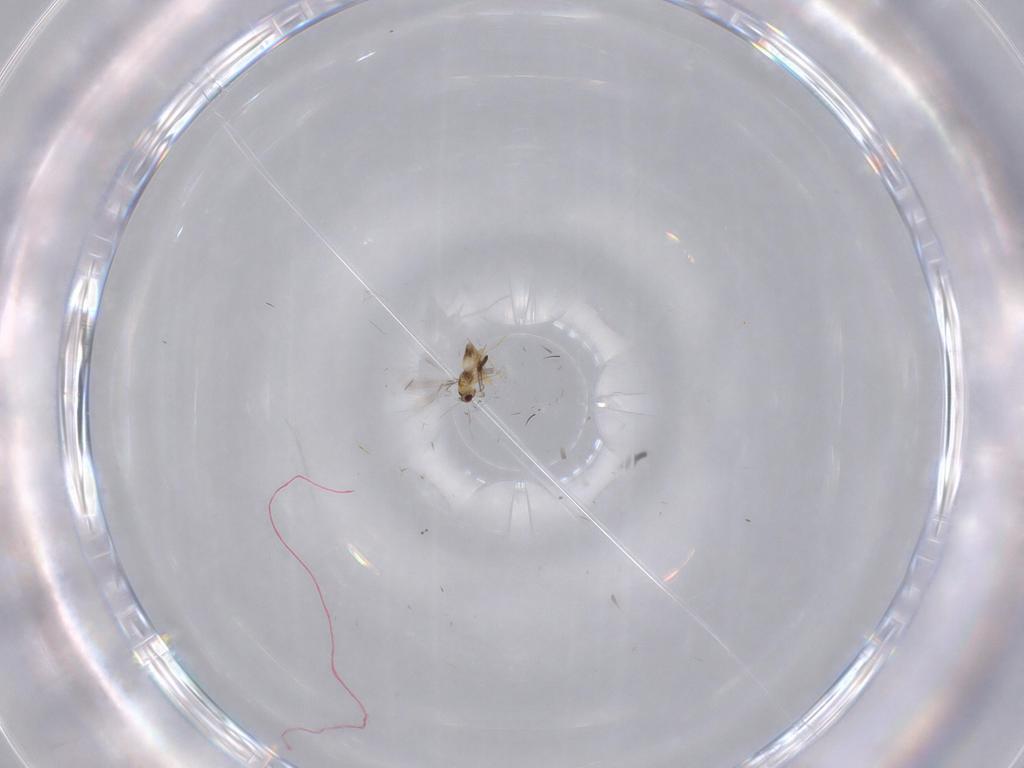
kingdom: Animalia
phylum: Arthropoda
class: Insecta
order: Diptera
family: Cecidomyiidae
